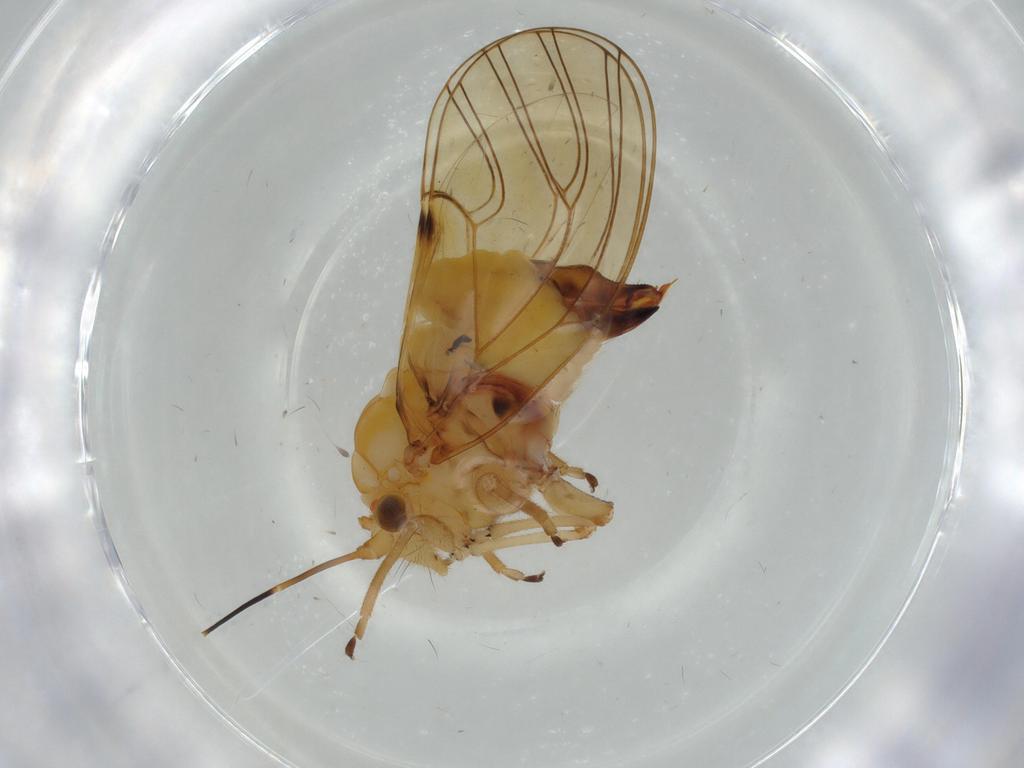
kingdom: Animalia
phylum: Arthropoda
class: Insecta
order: Hemiptera
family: Psyllidae
